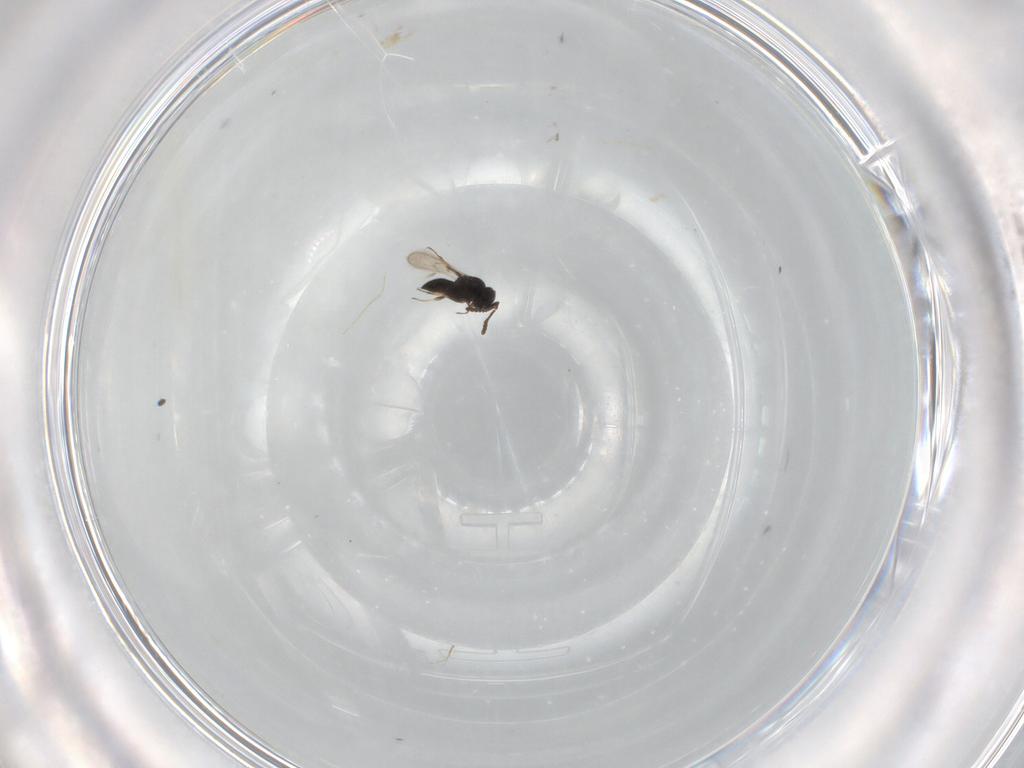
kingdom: Animalia
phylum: Arthropoda
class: Insecta
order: Hymenoptera
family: Scelionidae
